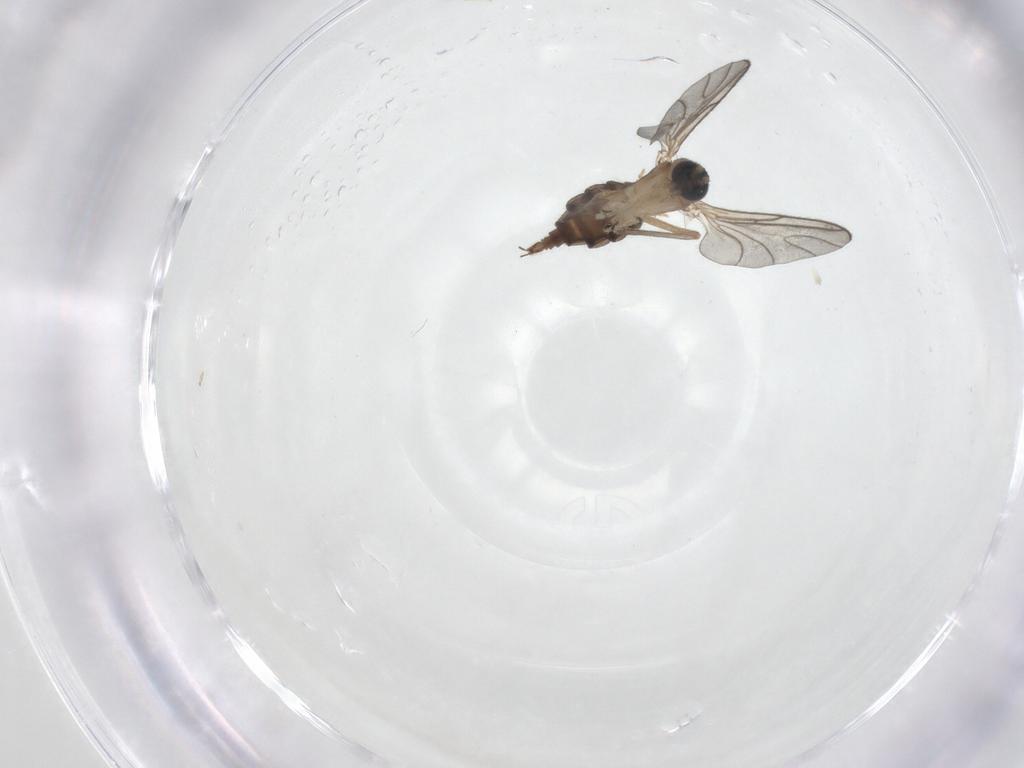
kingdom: Animalia
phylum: Arthropoda
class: Insecta
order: Diptera
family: Sciaridae
